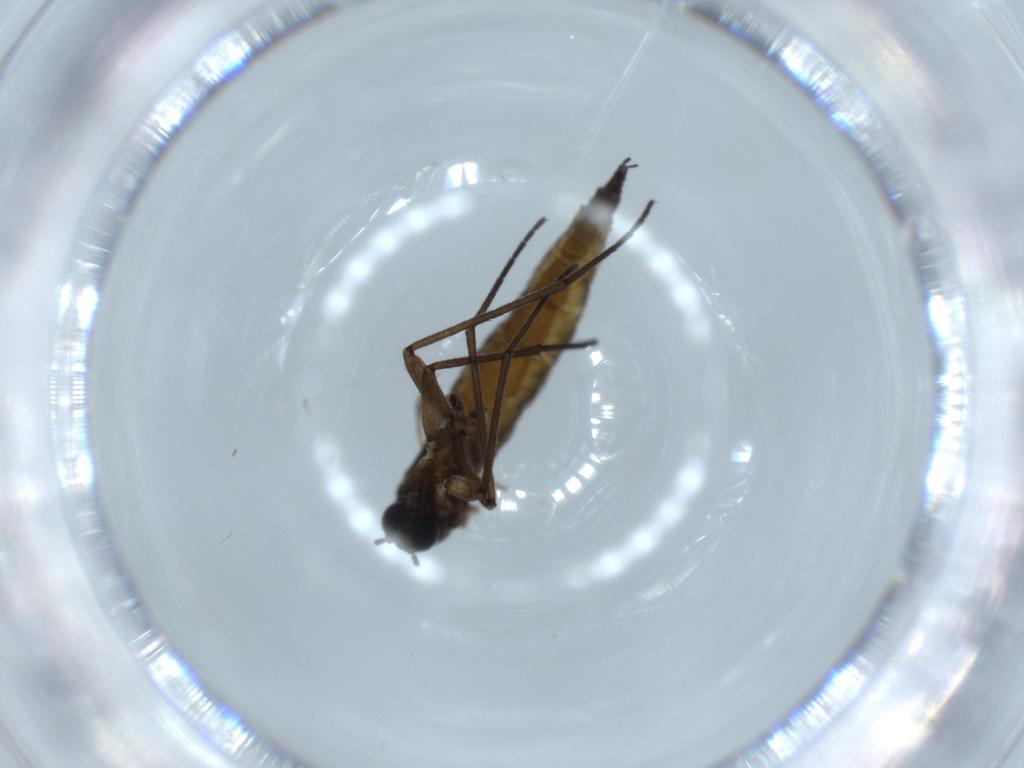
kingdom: Animalia
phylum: Arthropoda
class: Insecta
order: Diptera
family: Sciaridae
